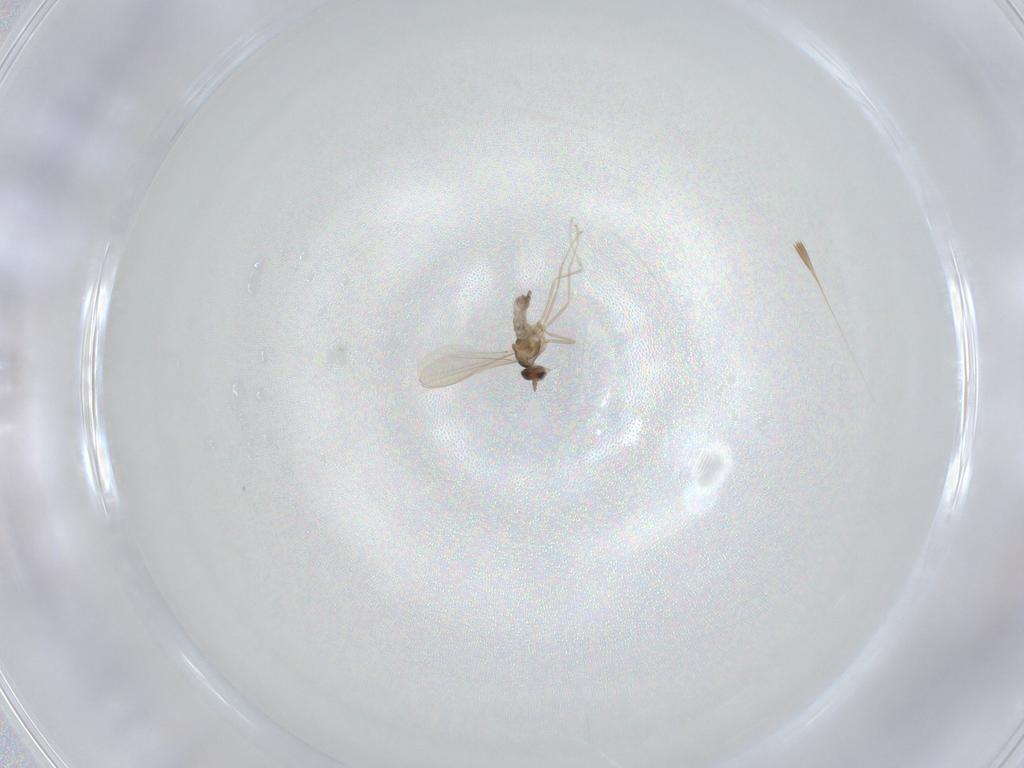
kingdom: Animalia
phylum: Arthropoda
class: Insecta
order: Diptera
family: Cecidomyiidae
